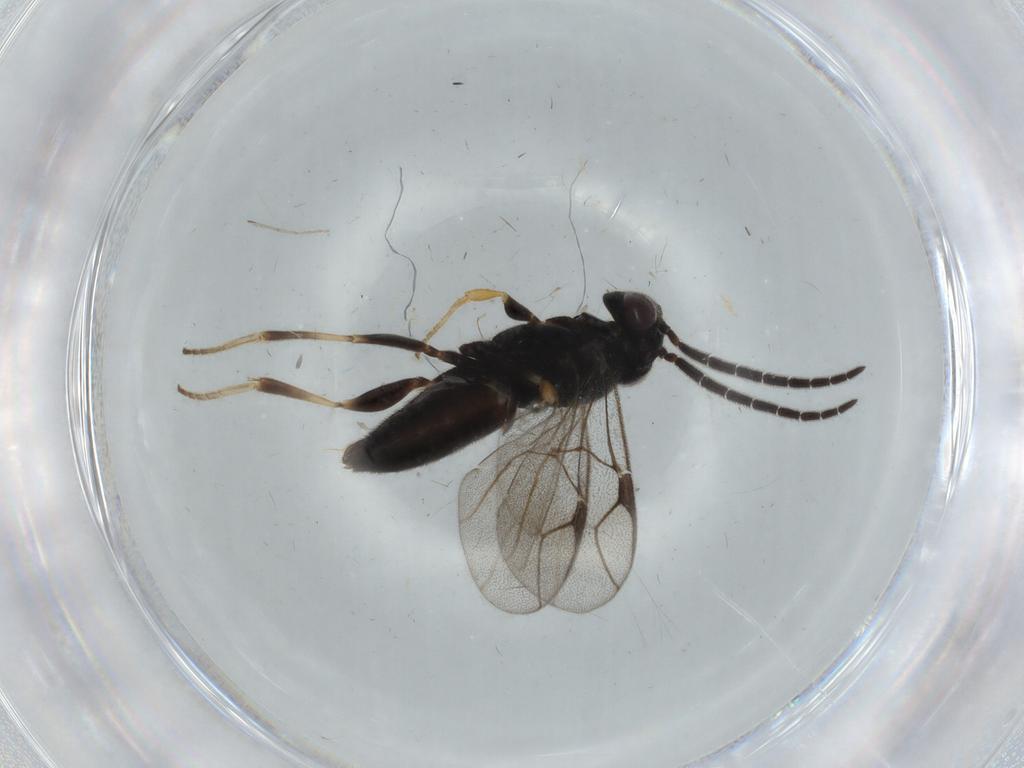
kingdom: Animalia
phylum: Arthropoda
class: Insecta
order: Hymenoptera
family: Dryinidae
